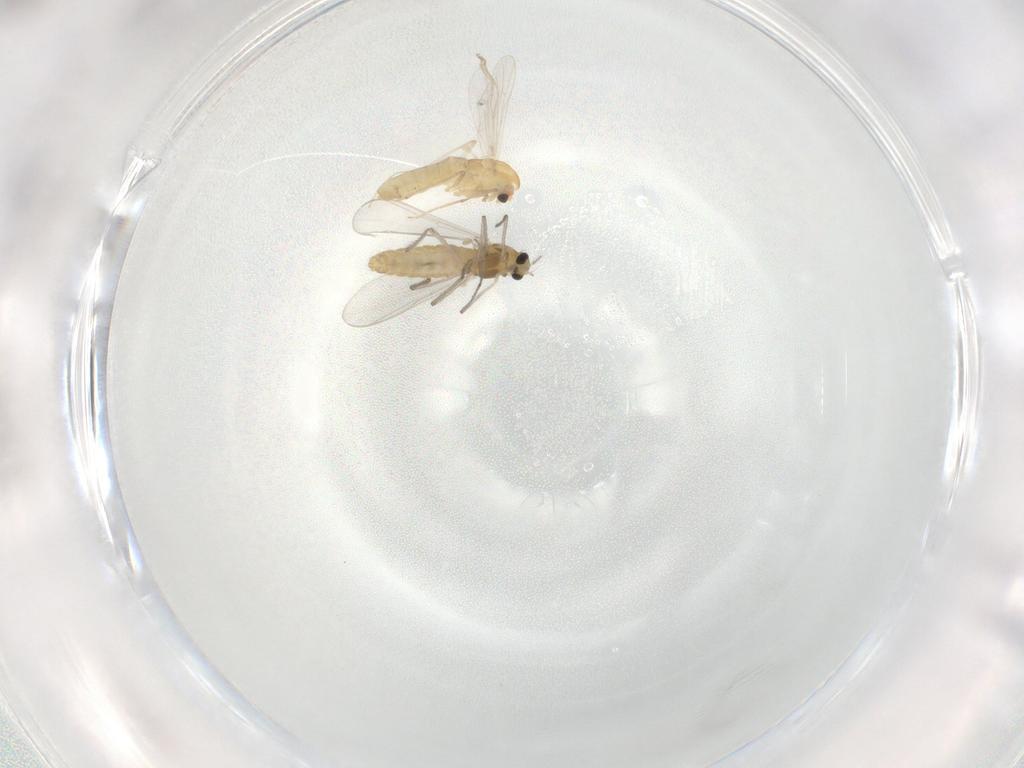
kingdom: Animalia
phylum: Arthropoda
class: Insecta
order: Diptera
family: Chironomidae
